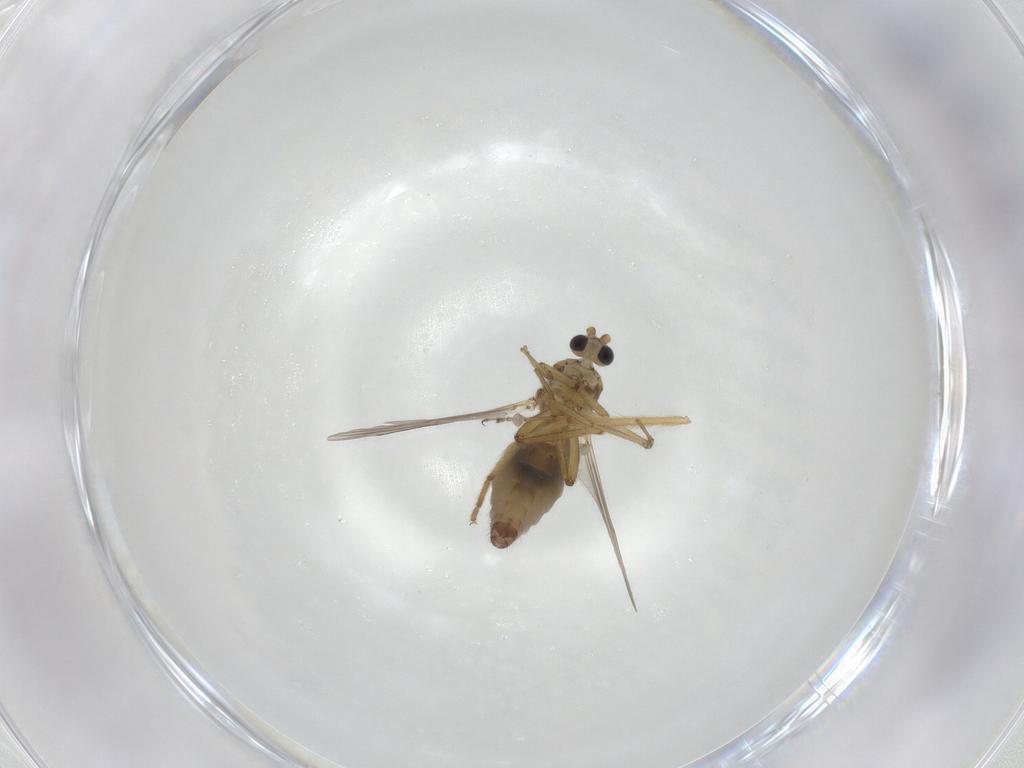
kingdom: Animalia
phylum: Arthropoda
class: Insecta
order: Diptera
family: Ceratopogonidae
